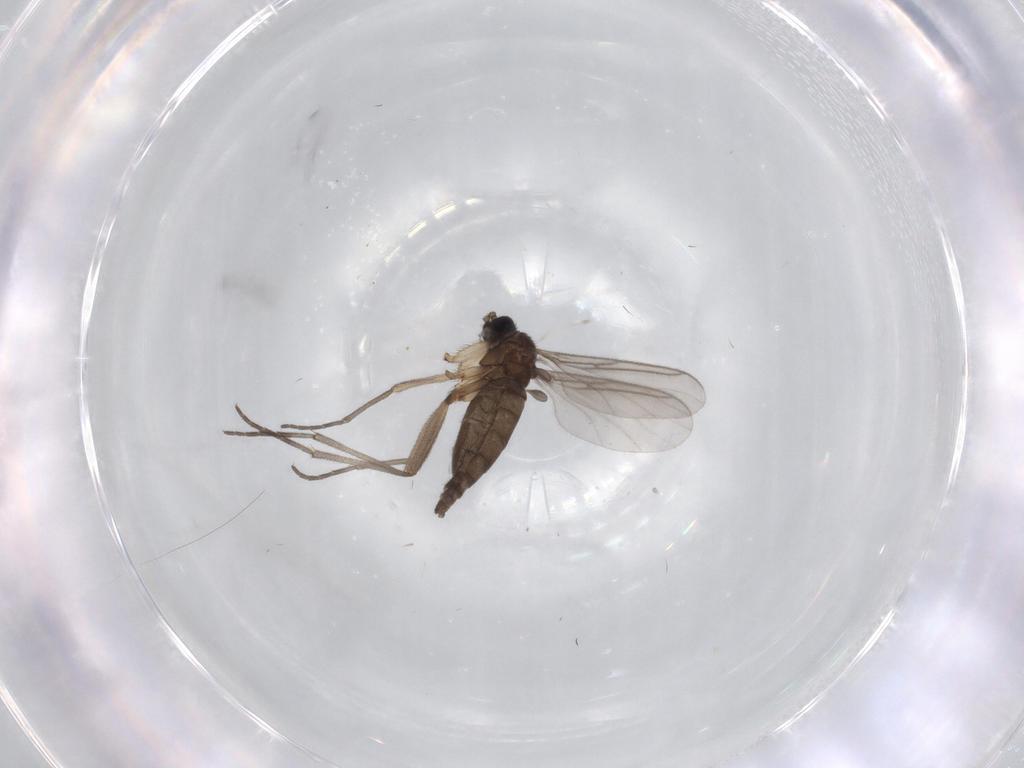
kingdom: Animalia
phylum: Arthropoda
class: Insecta
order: Diptera
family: Sciaridae
